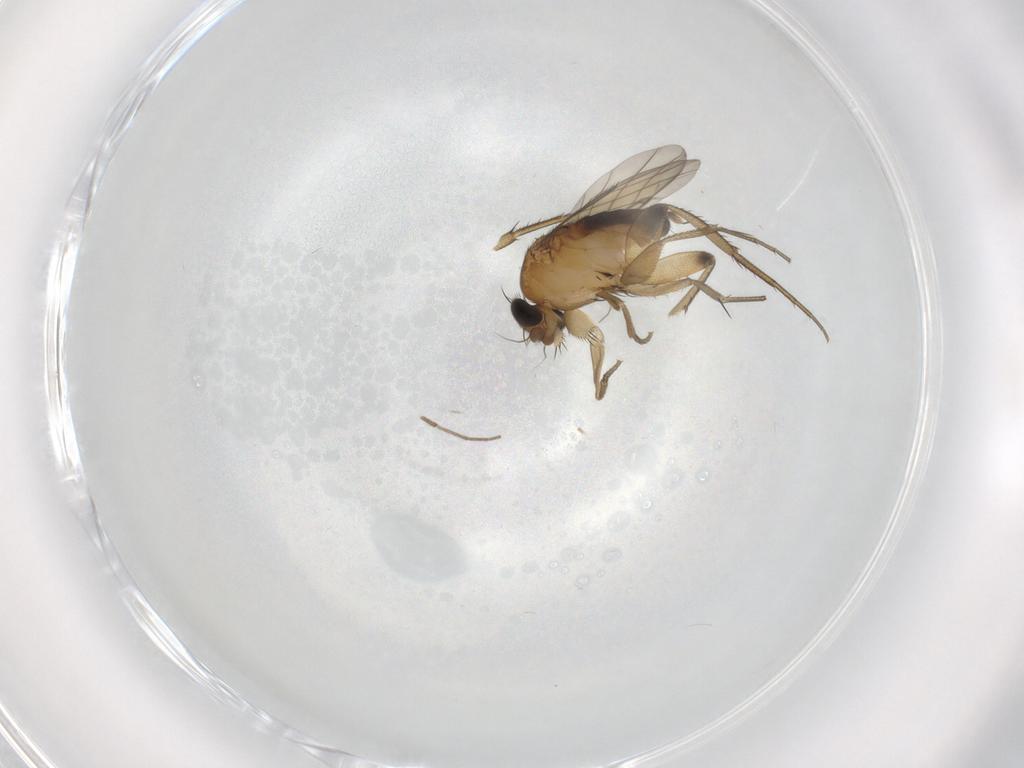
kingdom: Animalia
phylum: Arthropoda
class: Insecta
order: Diptera
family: Phoridae
